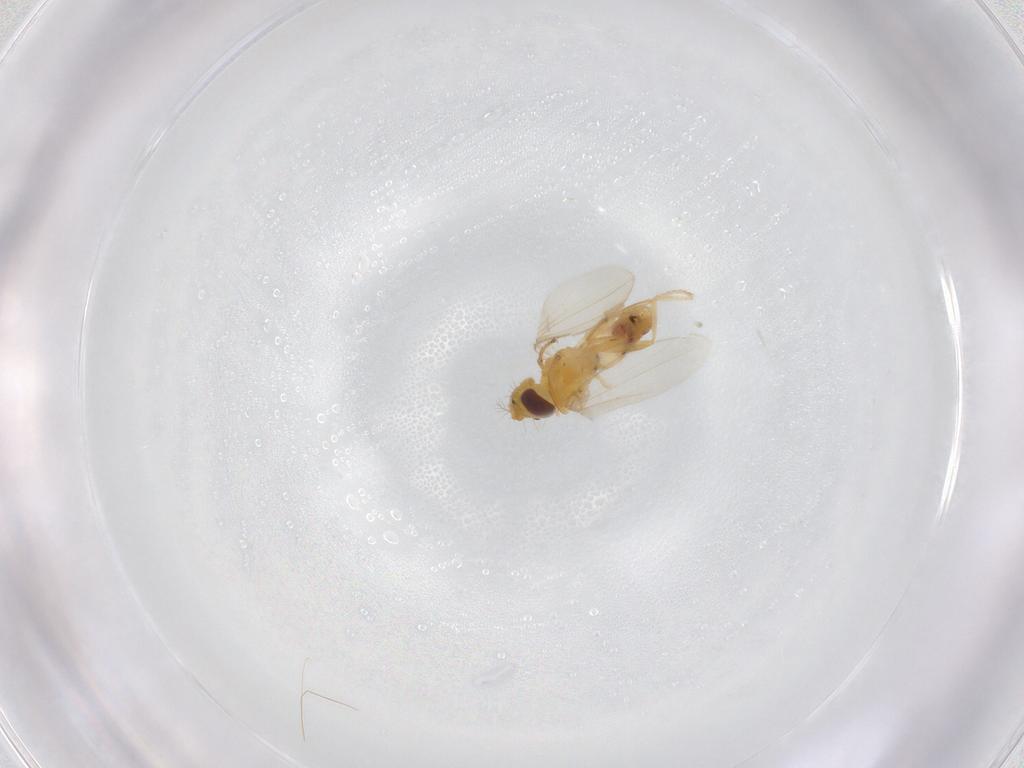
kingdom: Animalia
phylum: Arthropoda
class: Insecta
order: Diptera
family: Periscelididae
